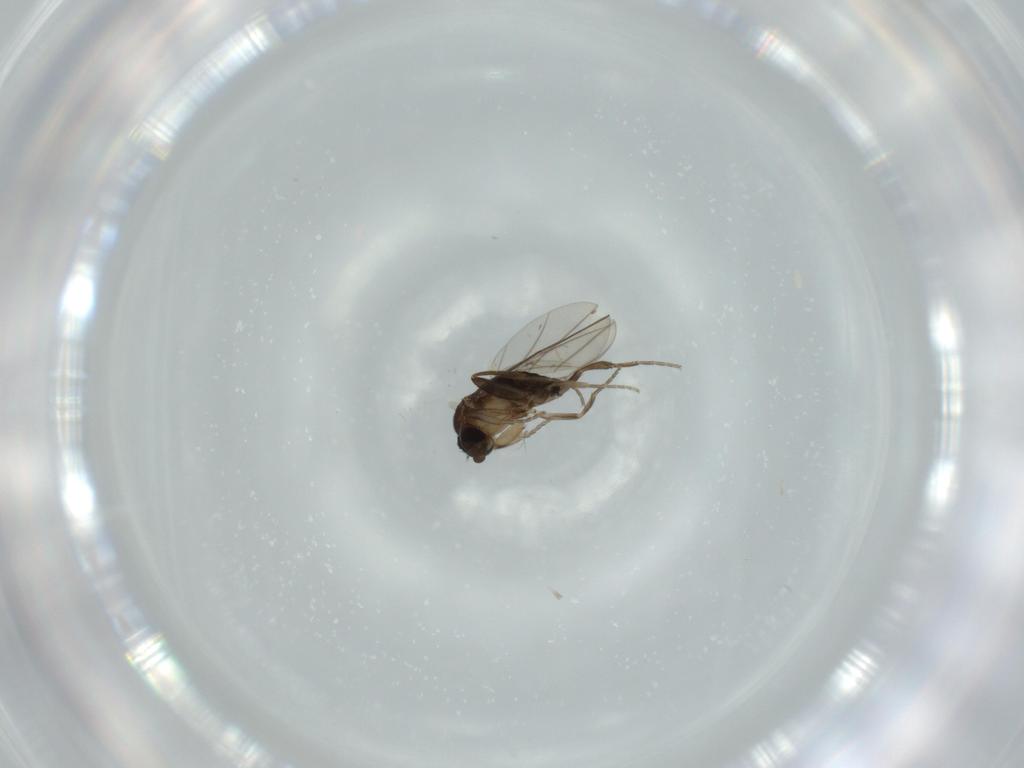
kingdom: Animalia
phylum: Arthropoda
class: Insecta
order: Diptera
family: Phoridae
